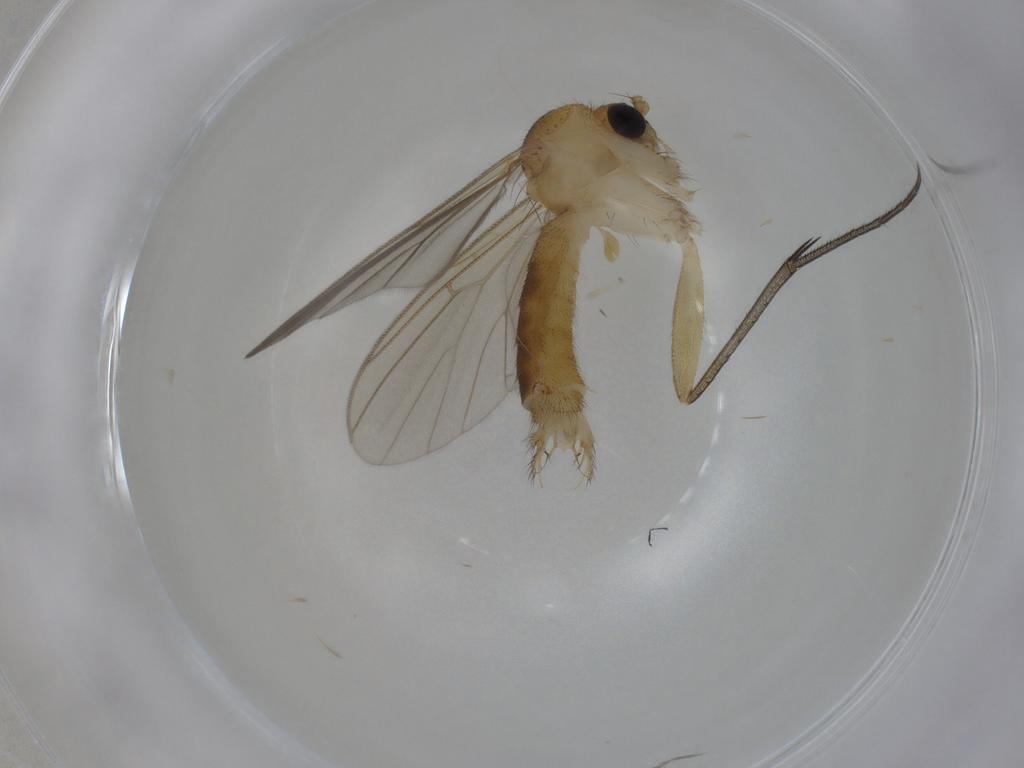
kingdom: Animalia
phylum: Arthropoda
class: Insecta
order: Diptera
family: Mycetophilidae
